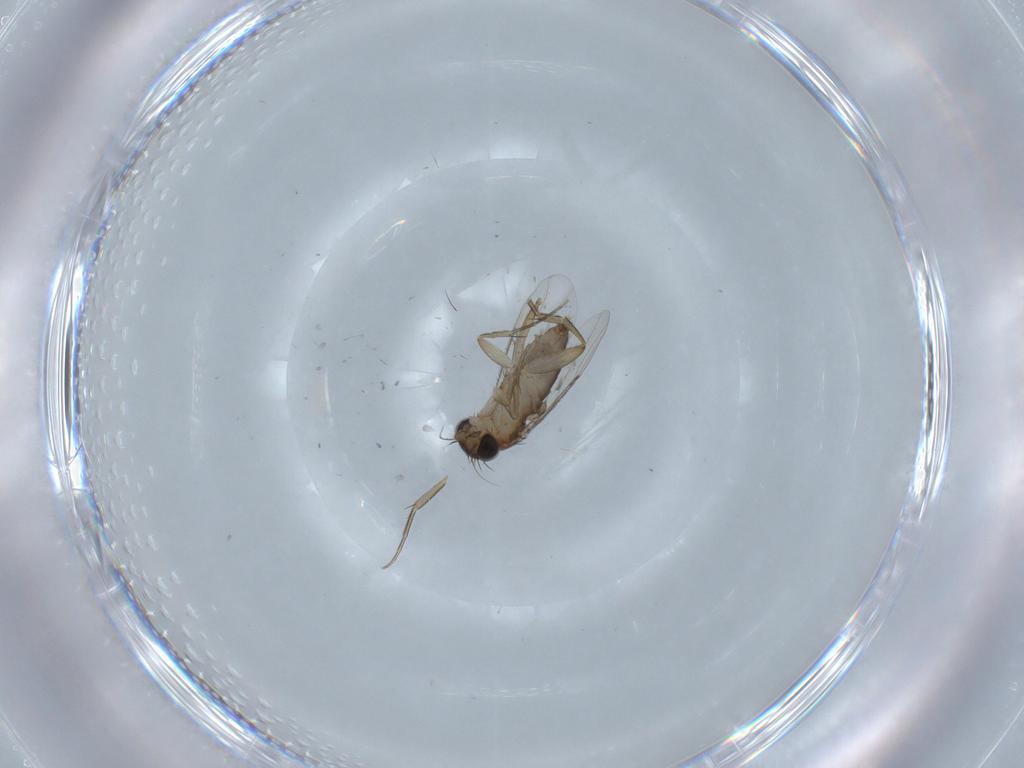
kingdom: Animalia
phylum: Arthropoda
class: Insecta
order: Diptera
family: Phoridae
